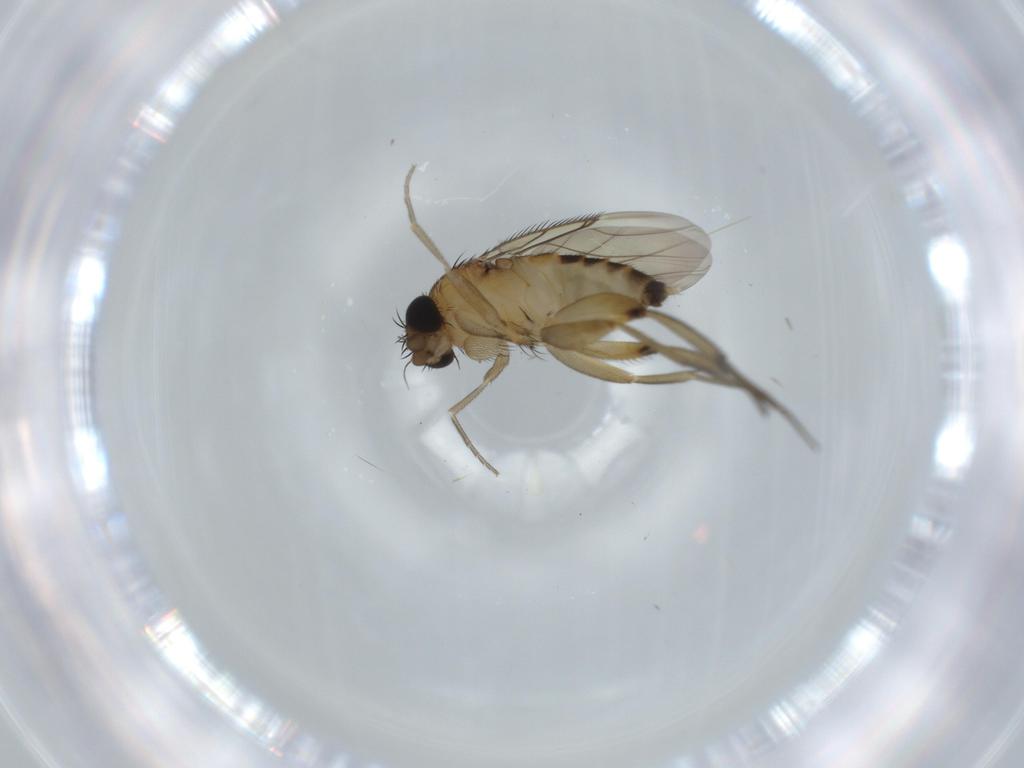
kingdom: Animalia
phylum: Arthropoda
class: Insecta
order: Diptera
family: Phoridae
